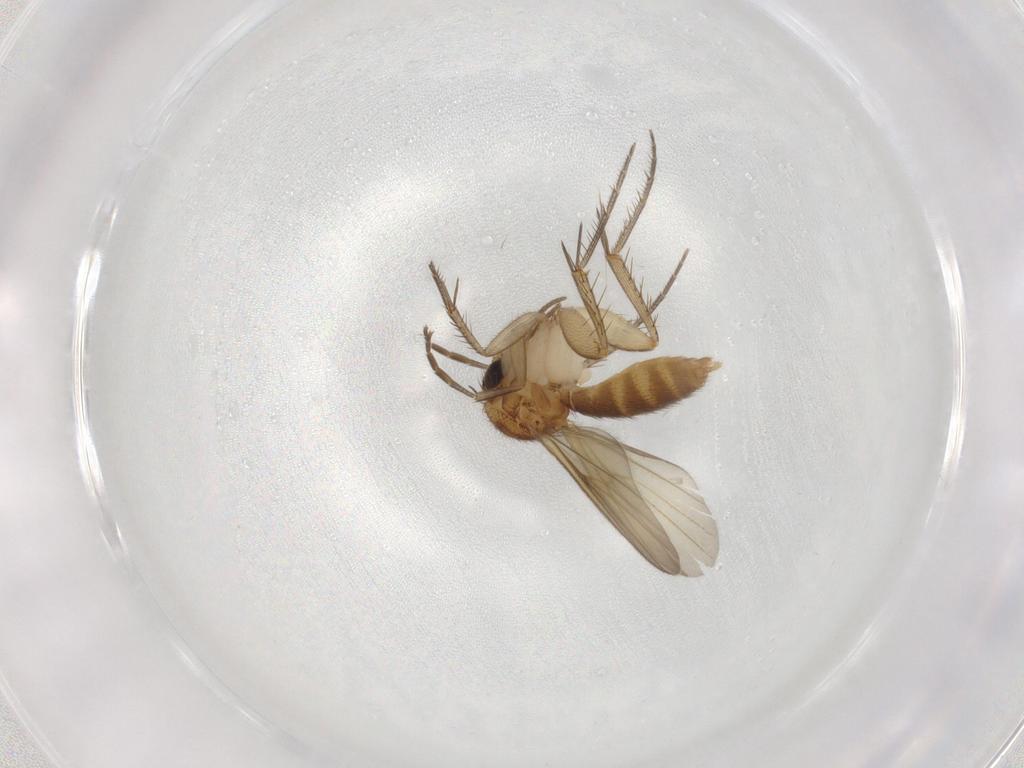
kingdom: Animalia
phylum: Arthropoda
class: Insecta
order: Diptera
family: Mycetophilidae
